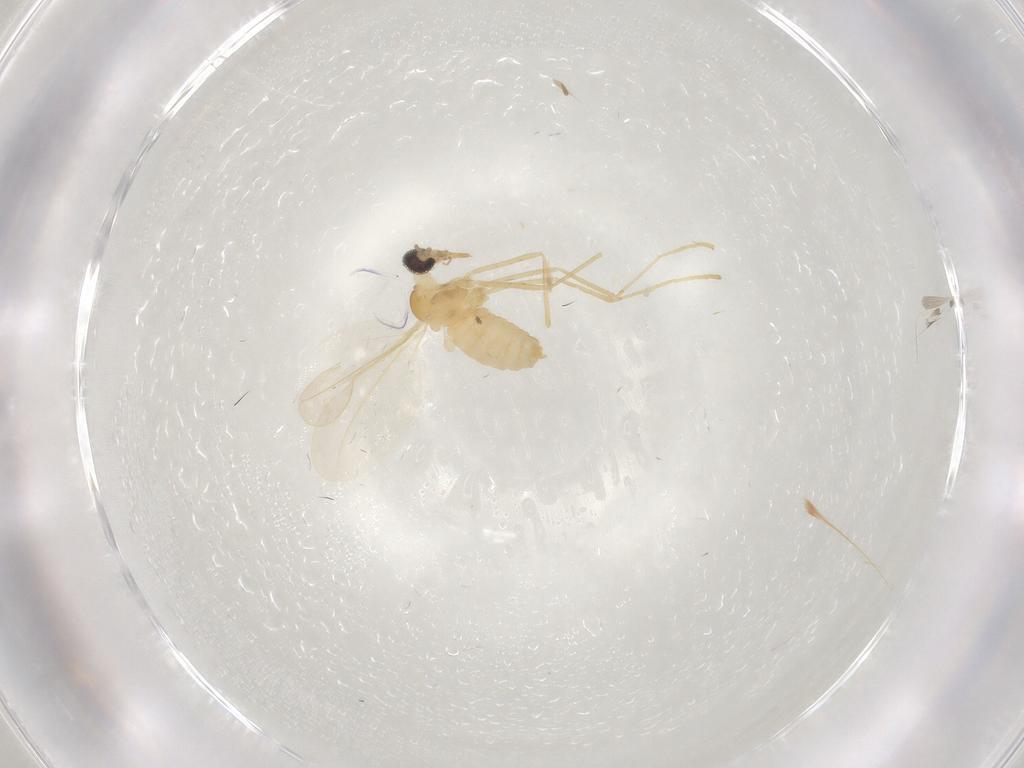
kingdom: Animalia
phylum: Arthropoda
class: Insecta
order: Diptera
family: Cecidomyiidae
